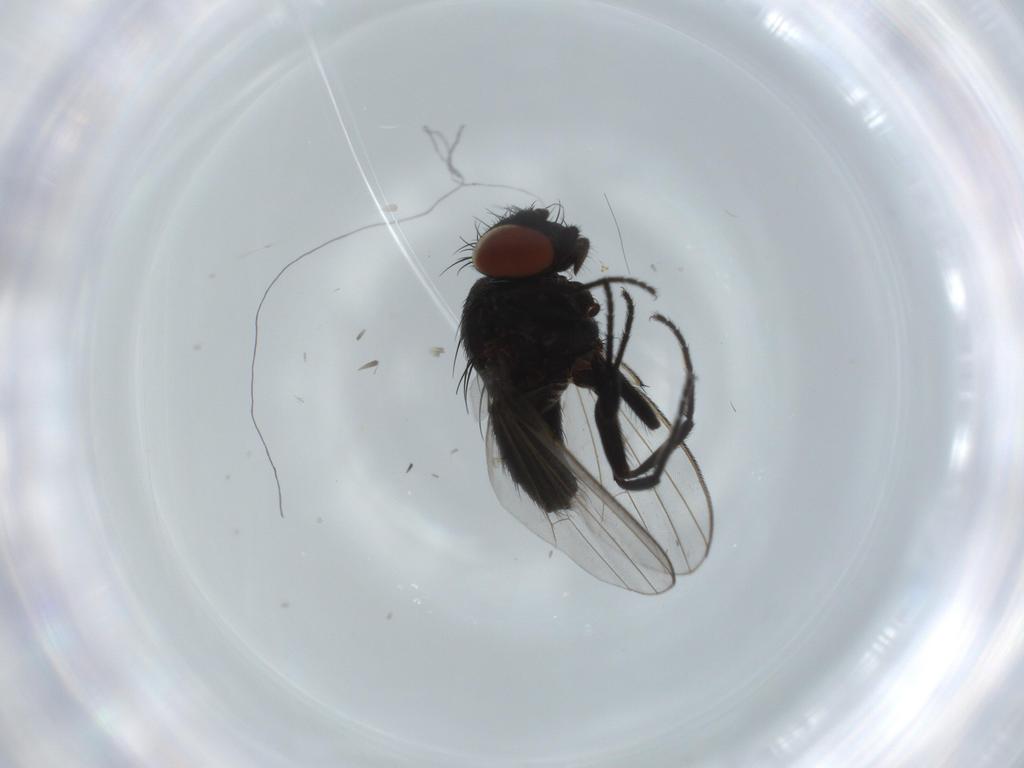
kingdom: Animalia
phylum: Arthropoda
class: Insecta
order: Diptera
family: Milichiidae
